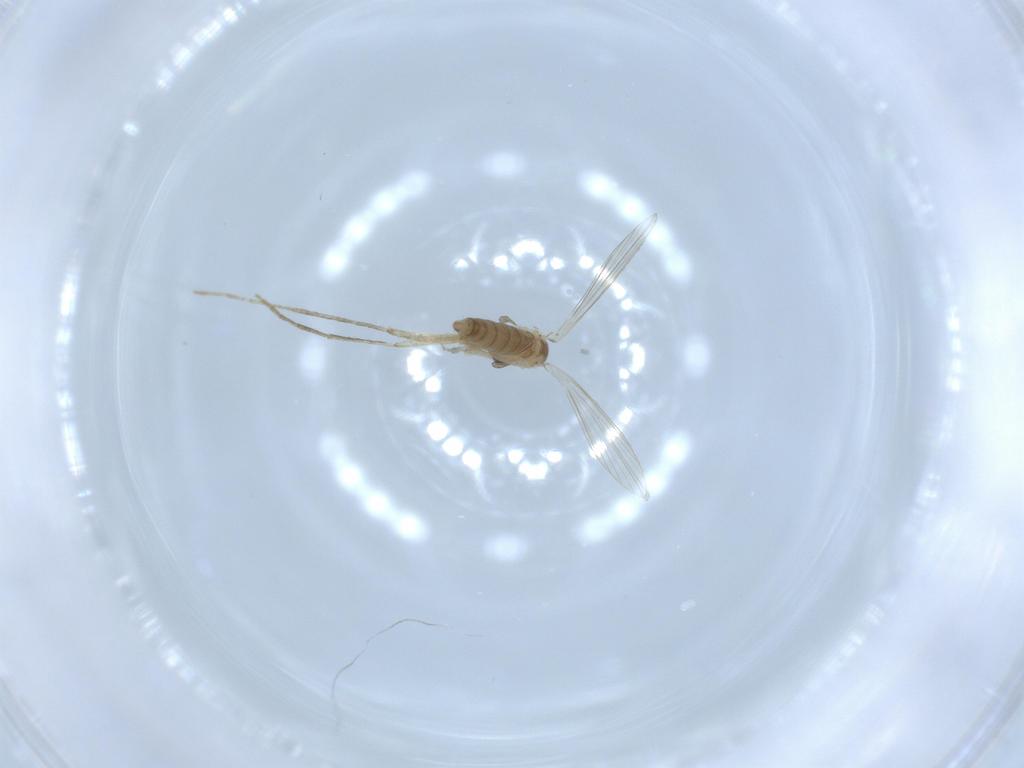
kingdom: Animalia
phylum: Arthropoda
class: Insecta
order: Diptera
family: Psychodidae
